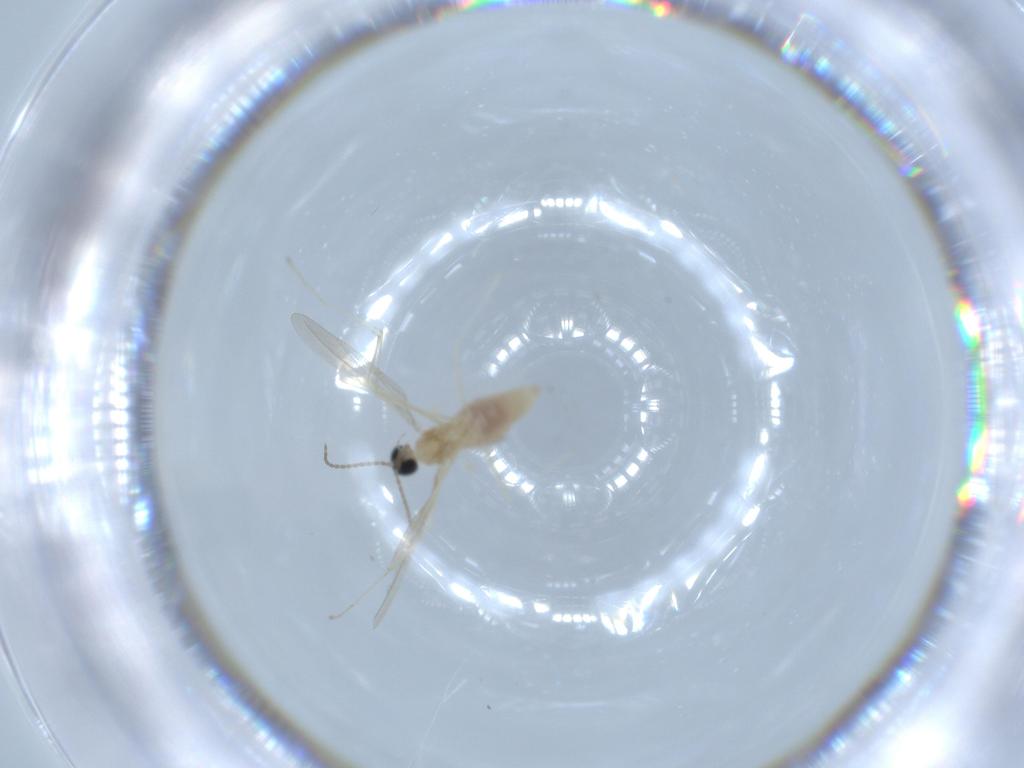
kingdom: Animalia
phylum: Arthropoda
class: Insecta
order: Diptera
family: Cecidomyiidae
